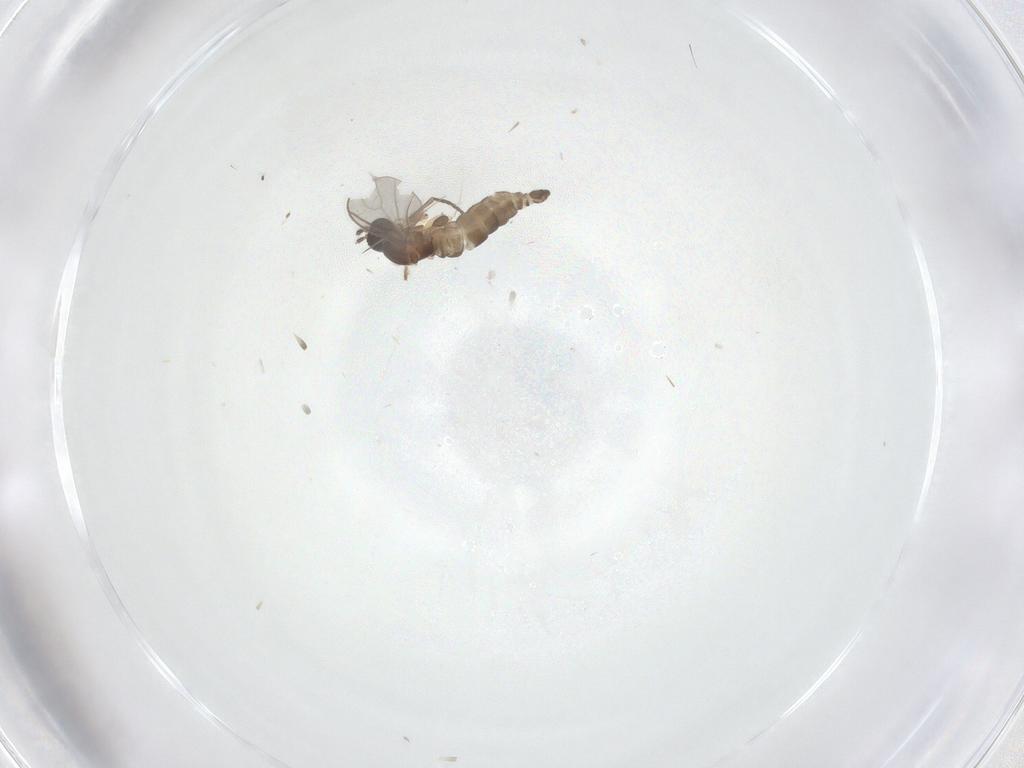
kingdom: Animalia
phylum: Arthropoda
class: Insecta
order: Diptera
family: Sciaridae
